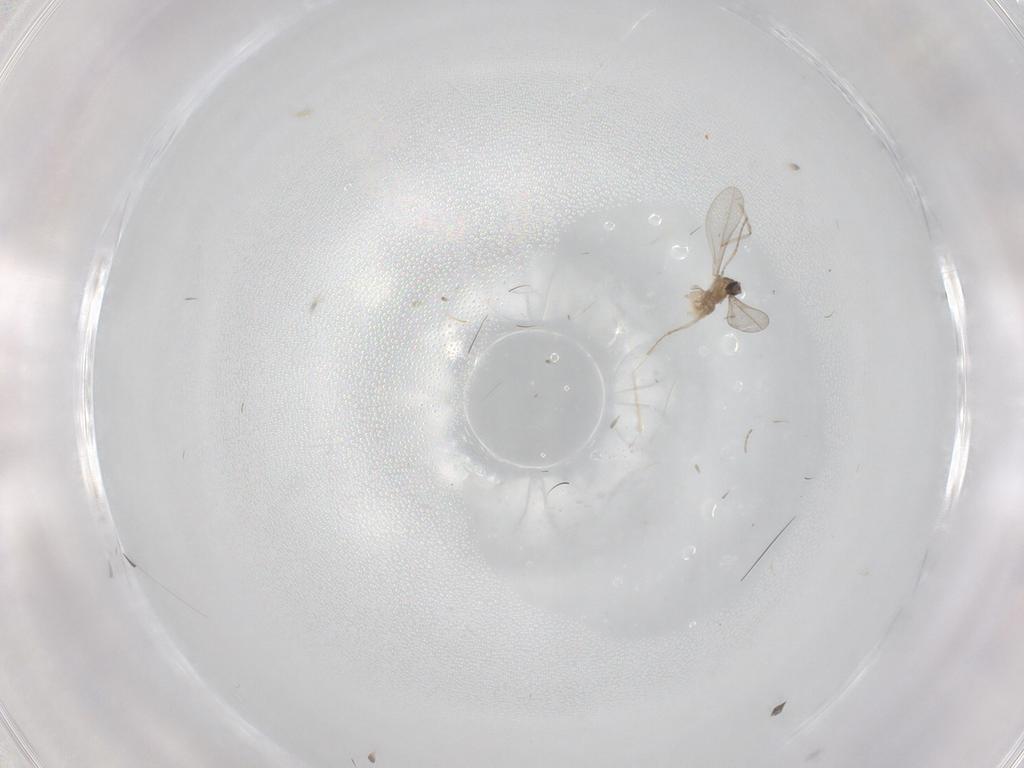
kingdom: Animalia
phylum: Arthropoda
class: Insecta
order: Diptera
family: Cecidomyiidae
